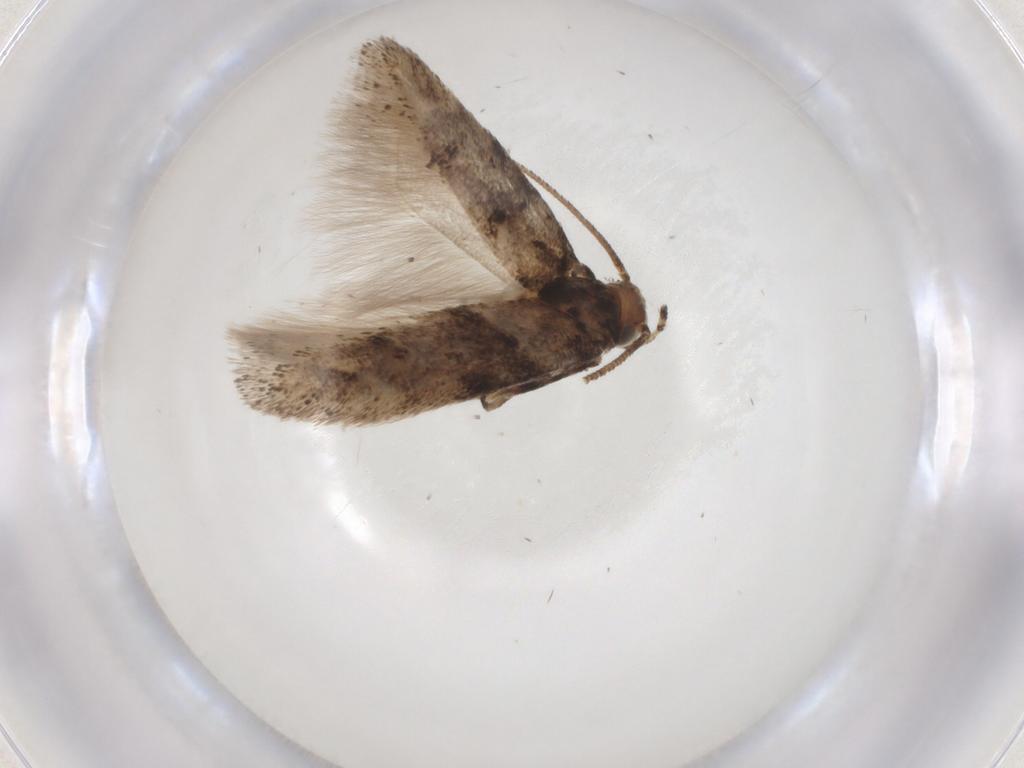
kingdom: Animalia
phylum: Arthropoda
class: Insecta
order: Lepidoptera
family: Gelechiidae
